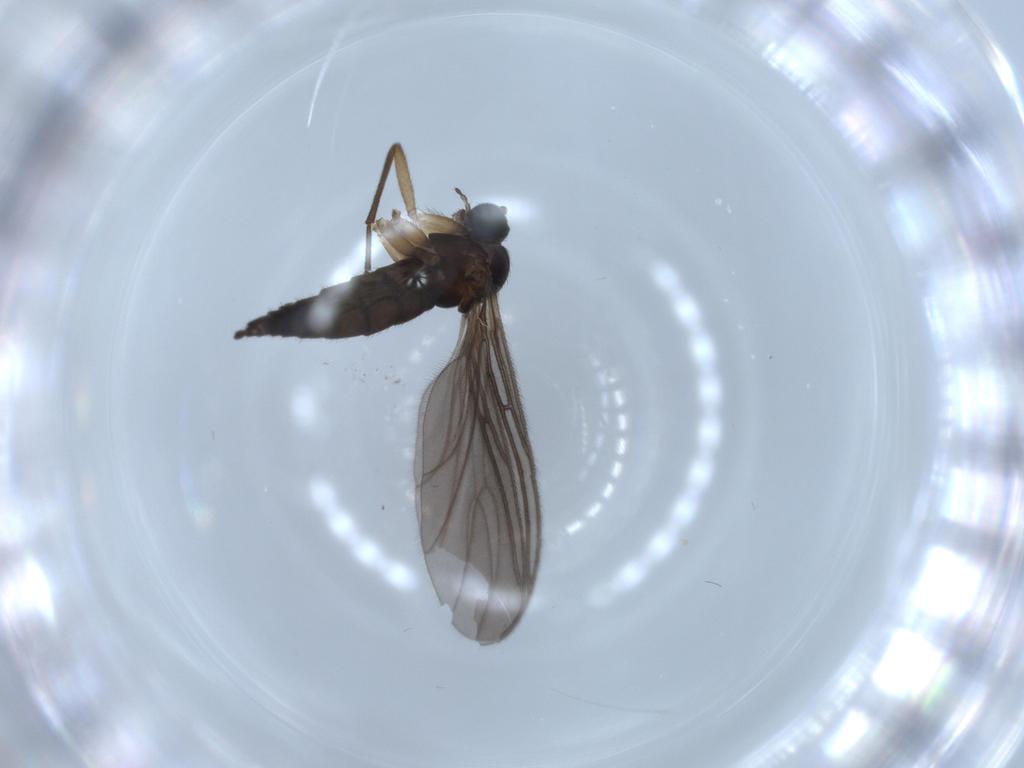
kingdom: Animalia
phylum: Arthropoda
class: Insecta
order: Diptera
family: Sciaridae
